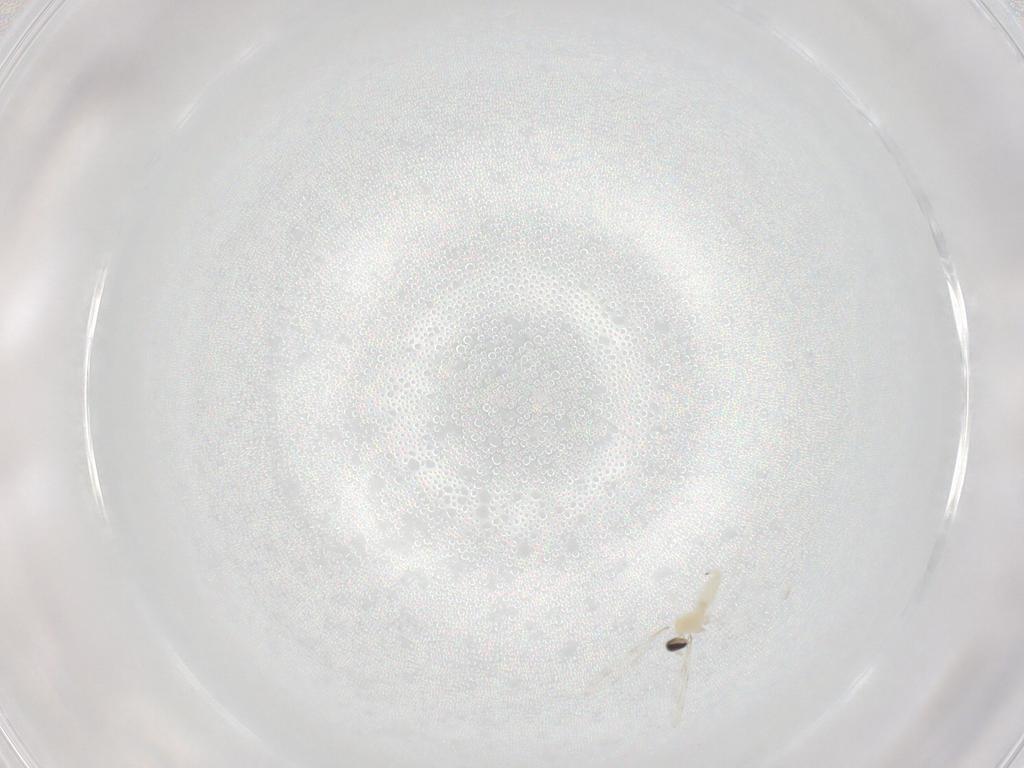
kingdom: Animalia
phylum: Arthropoda
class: Insecta
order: Diptera
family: Cecidomyiidae
